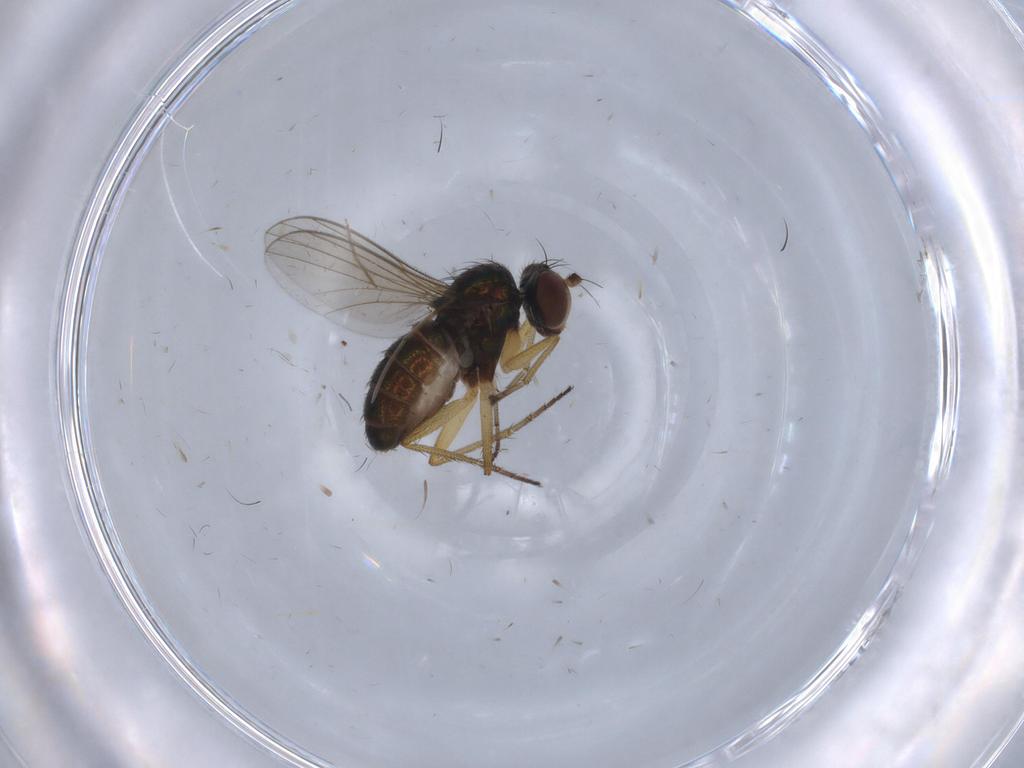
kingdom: Animalia
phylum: Arthropoda
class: Insecta
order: Diptera
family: Chironomidae
